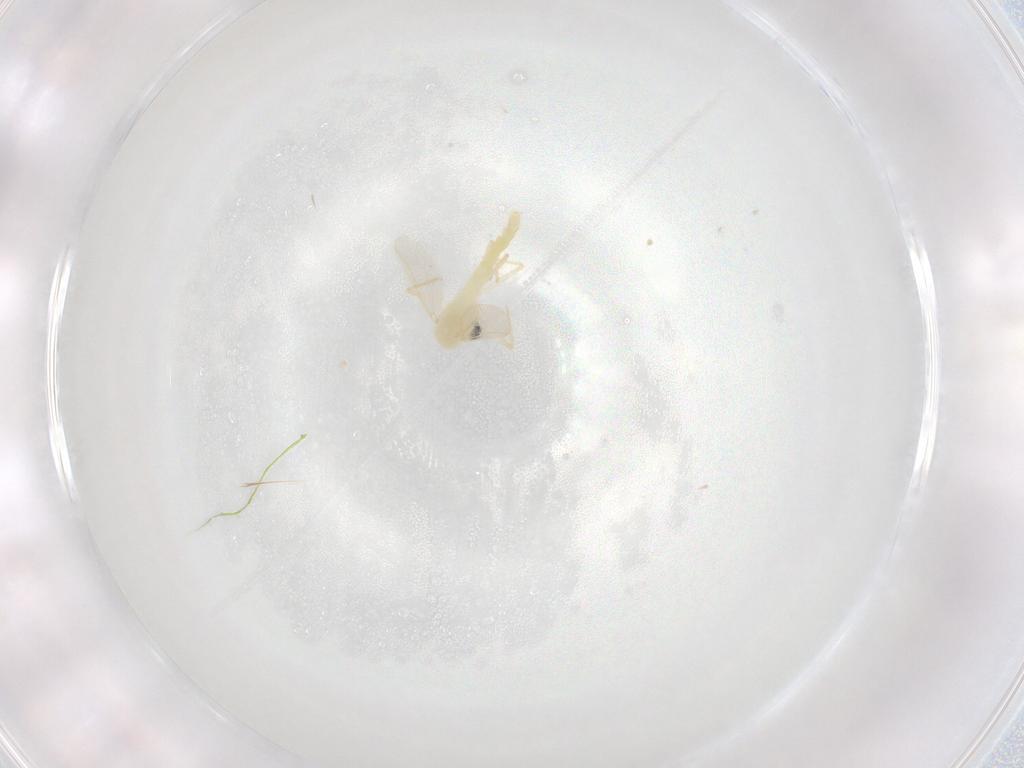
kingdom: Animalia
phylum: Arthropoda
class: Insecta
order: Diptera
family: Chironomidae
